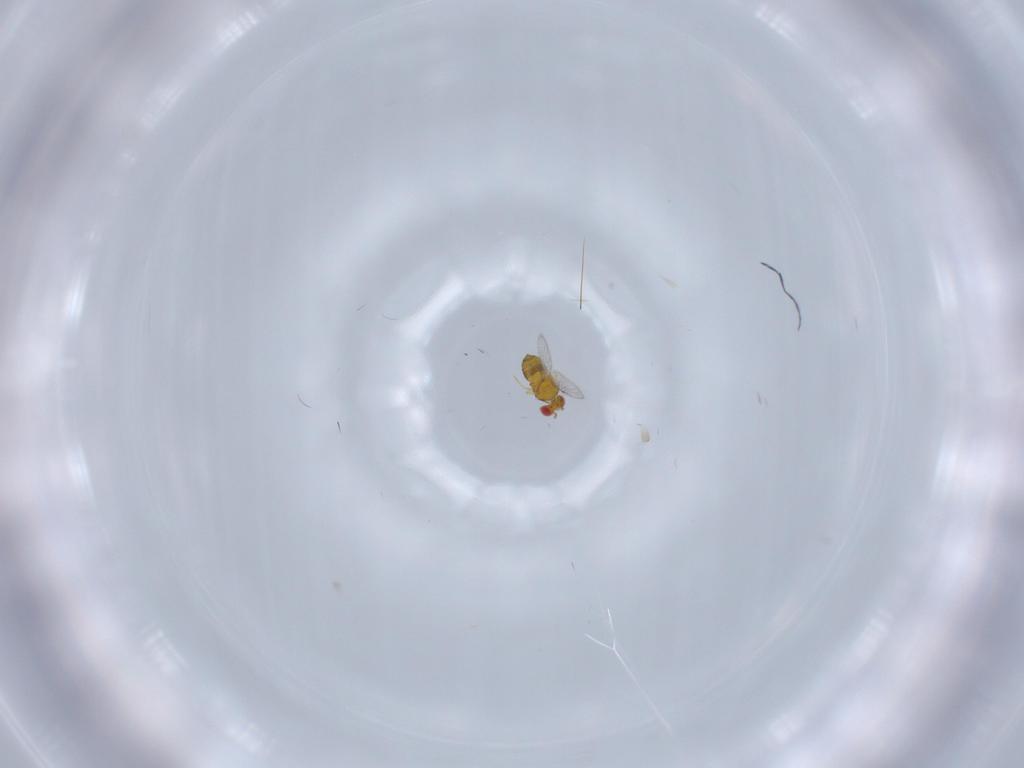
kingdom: Animalia
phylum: Arthropoda
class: Insecta
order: Hymenoptera
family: Trichogrammatidae
